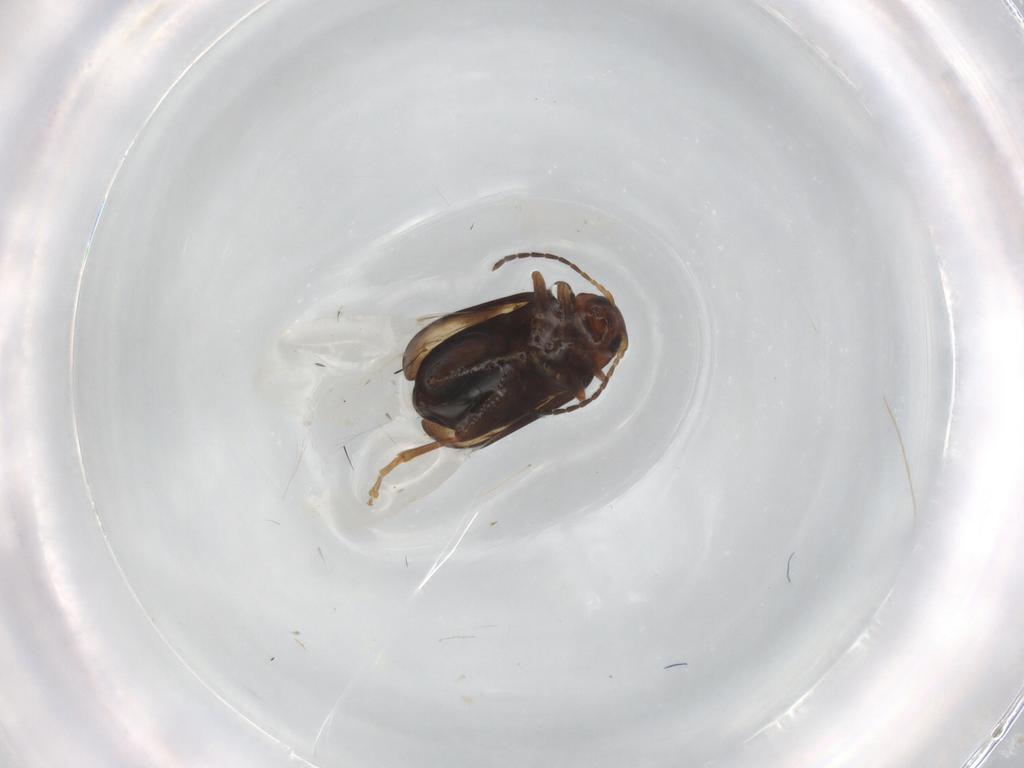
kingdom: Animalia
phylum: Arthropoda
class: Insecta
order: Coleoptera
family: Chrysomelidae
